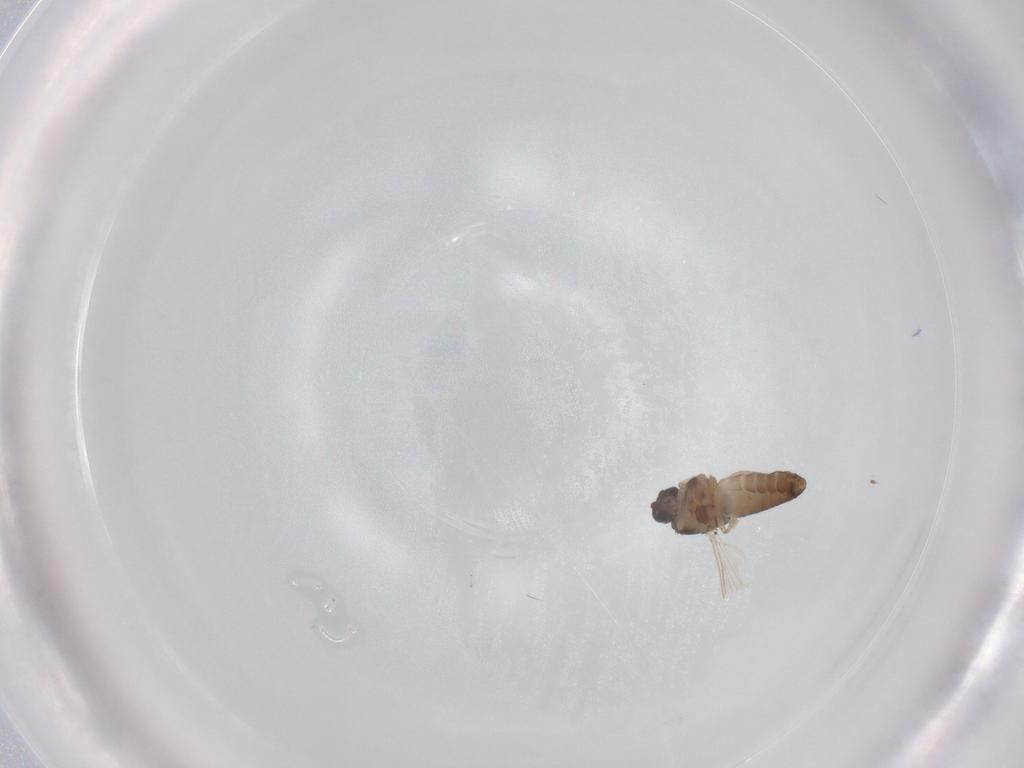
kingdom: Animalia
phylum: Arthropoda
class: Insecta
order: Diptera
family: Ceratopogonidae
